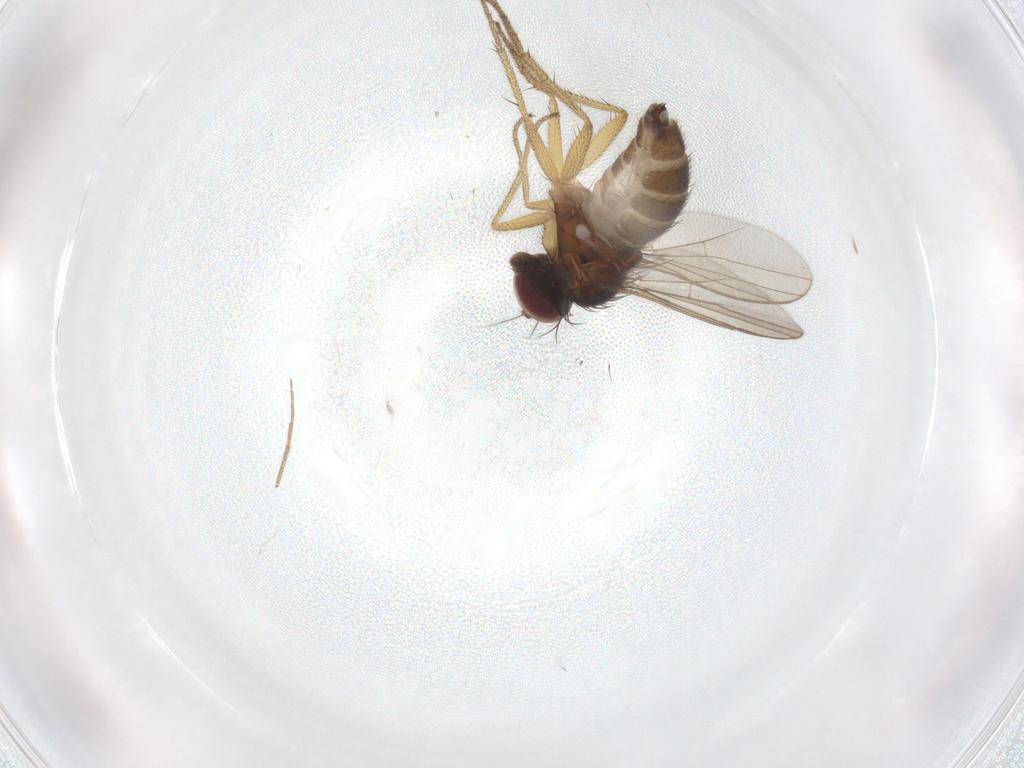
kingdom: Animalia
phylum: Arthropoda
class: Insecta
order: Diptera
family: Dolichopodidae
